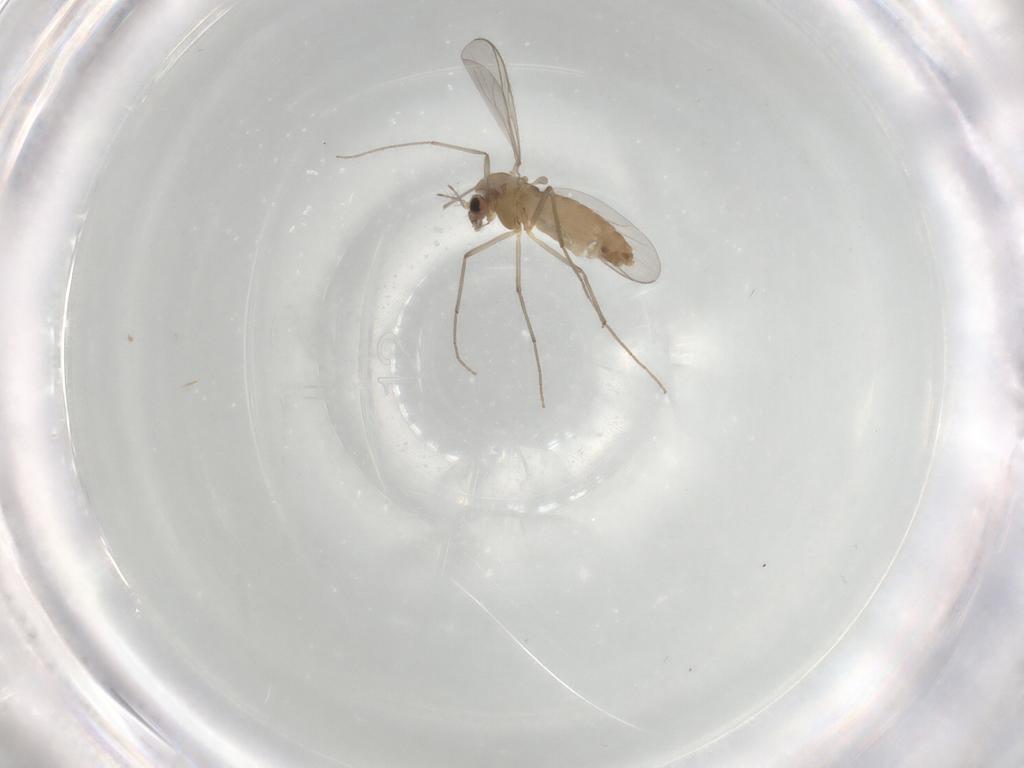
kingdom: Animalia
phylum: Arthropoda
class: Insecta
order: Diptera
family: Chironomidae
